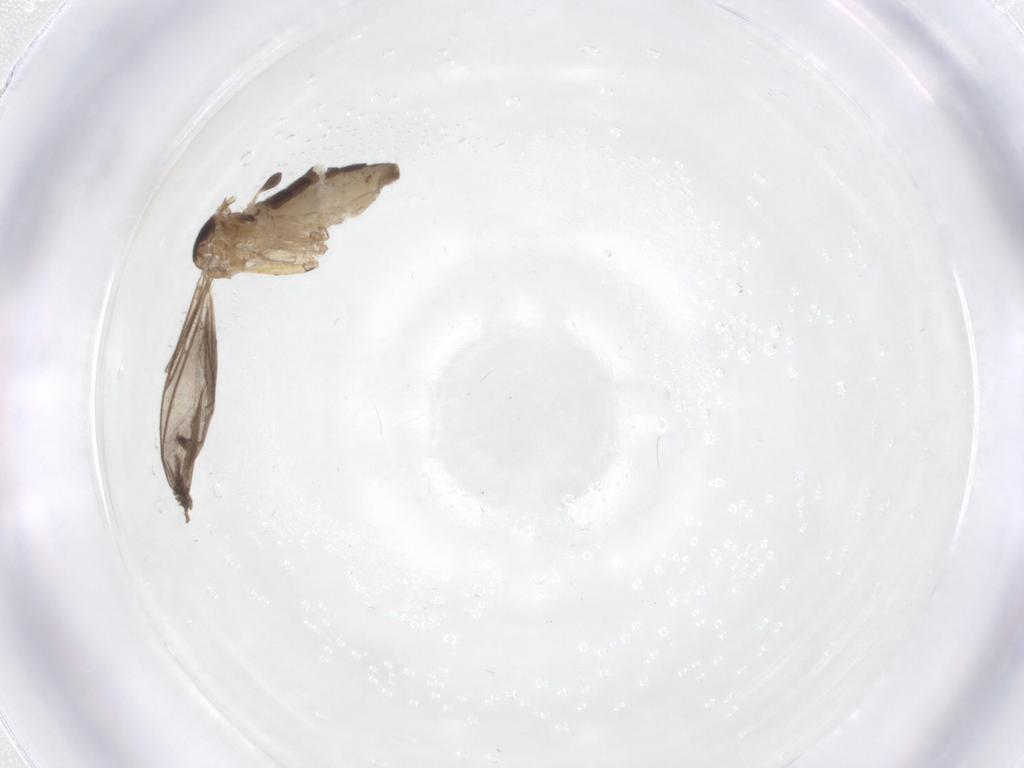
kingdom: Animalia
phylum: Arthropoda
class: Insecta
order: Diptera
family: Sciaridae
